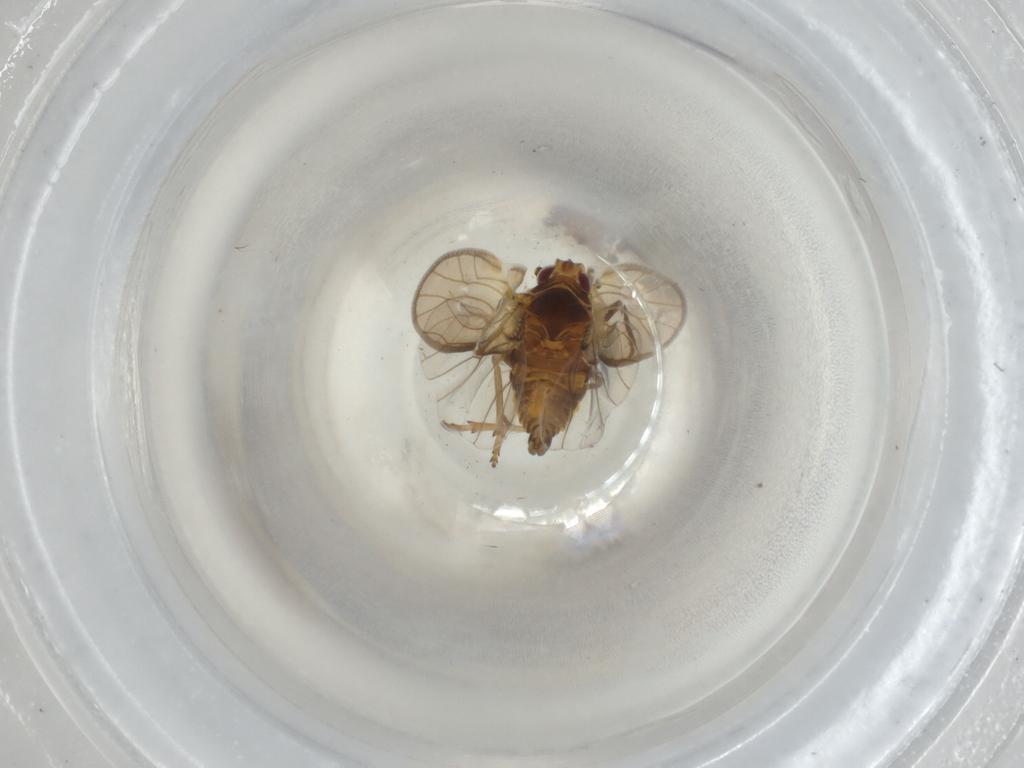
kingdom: Animalia
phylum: Arthropoda
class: Insecta
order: Hemiptera
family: Meenoplidae
